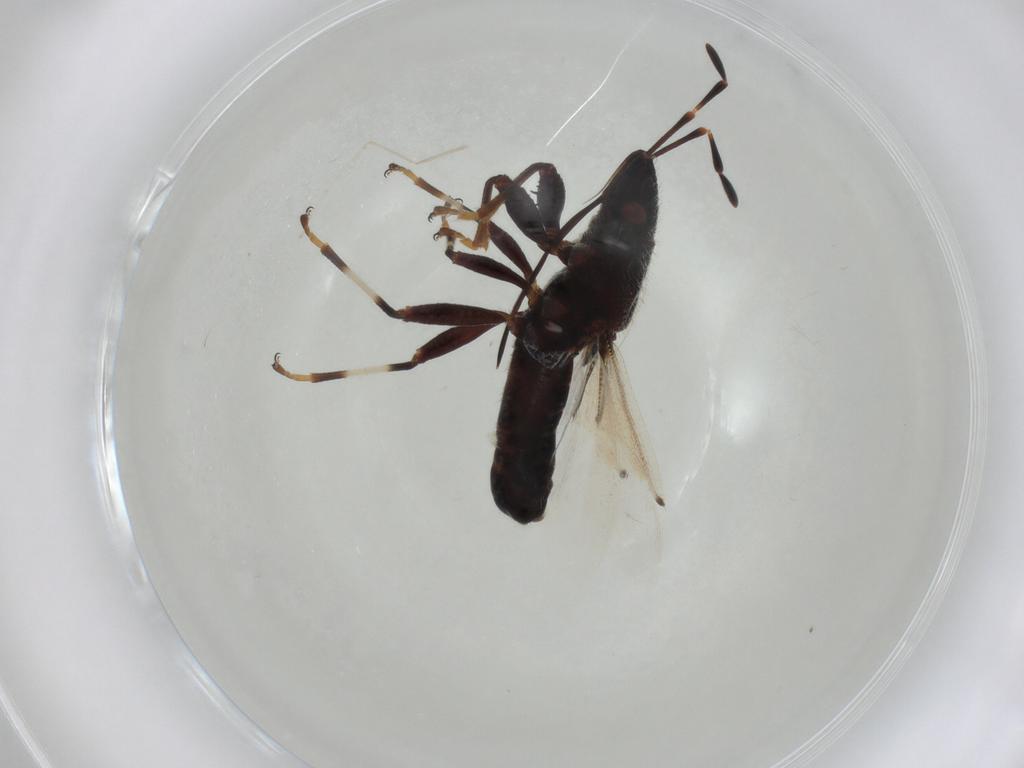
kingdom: Animalia
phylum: Arthropoda
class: Insecta
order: Hemiptera
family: Oxycarenidae
